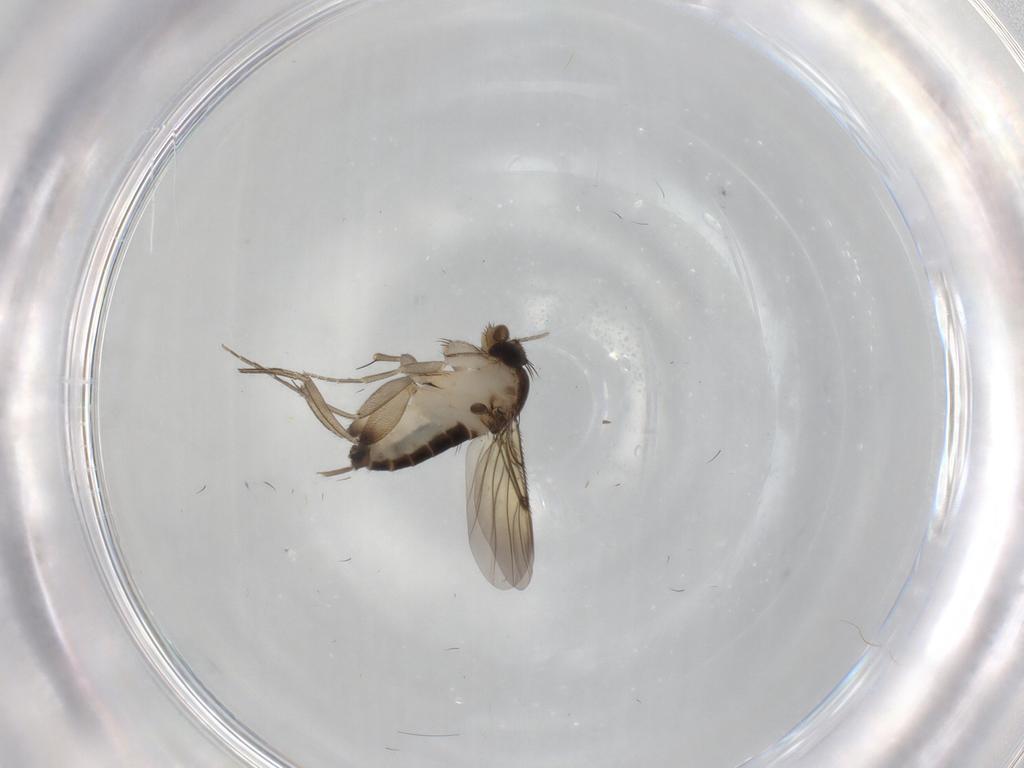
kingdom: Animalia
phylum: Arthropoda
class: Insecta
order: Diptera
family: Phoridae
